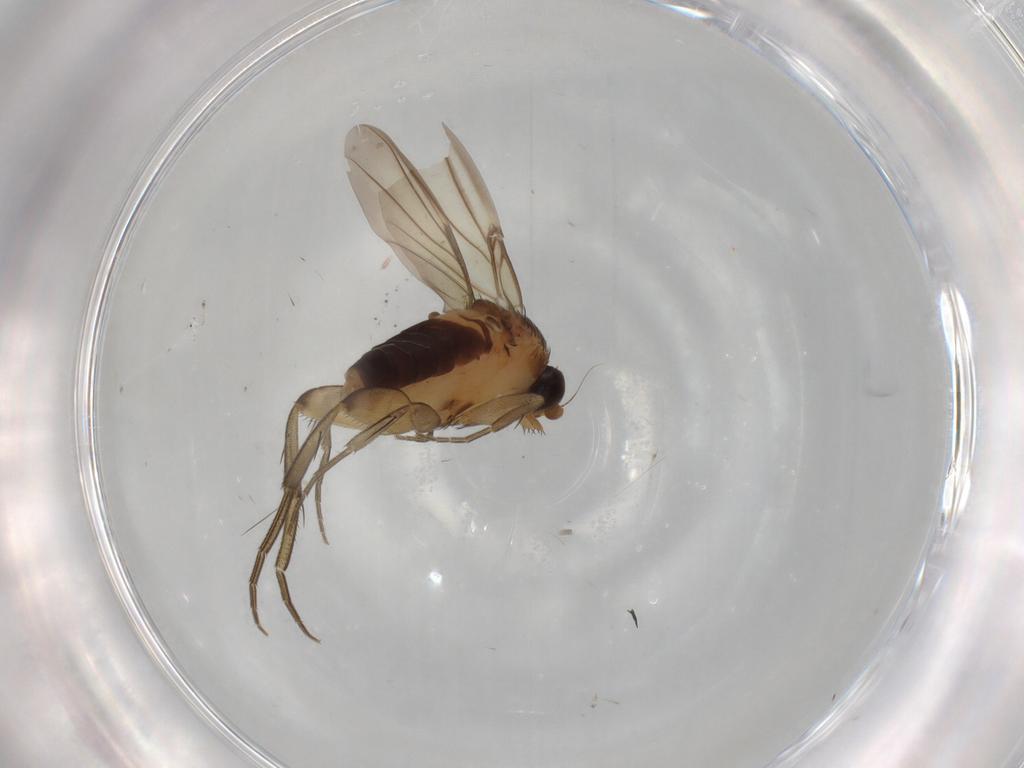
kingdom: Animalia
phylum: Arthropoda
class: Insecta
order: Diptera
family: Phoridae
